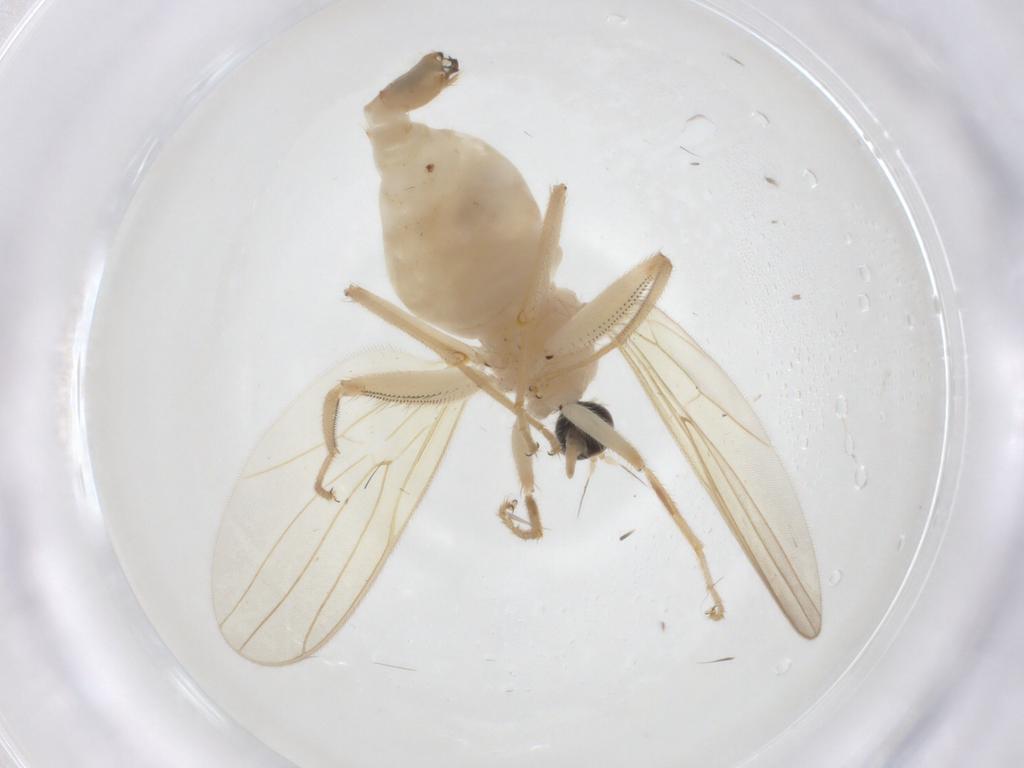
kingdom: Animalia
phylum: Arthropoda
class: Insecta
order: Diptera
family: Hybotidae
